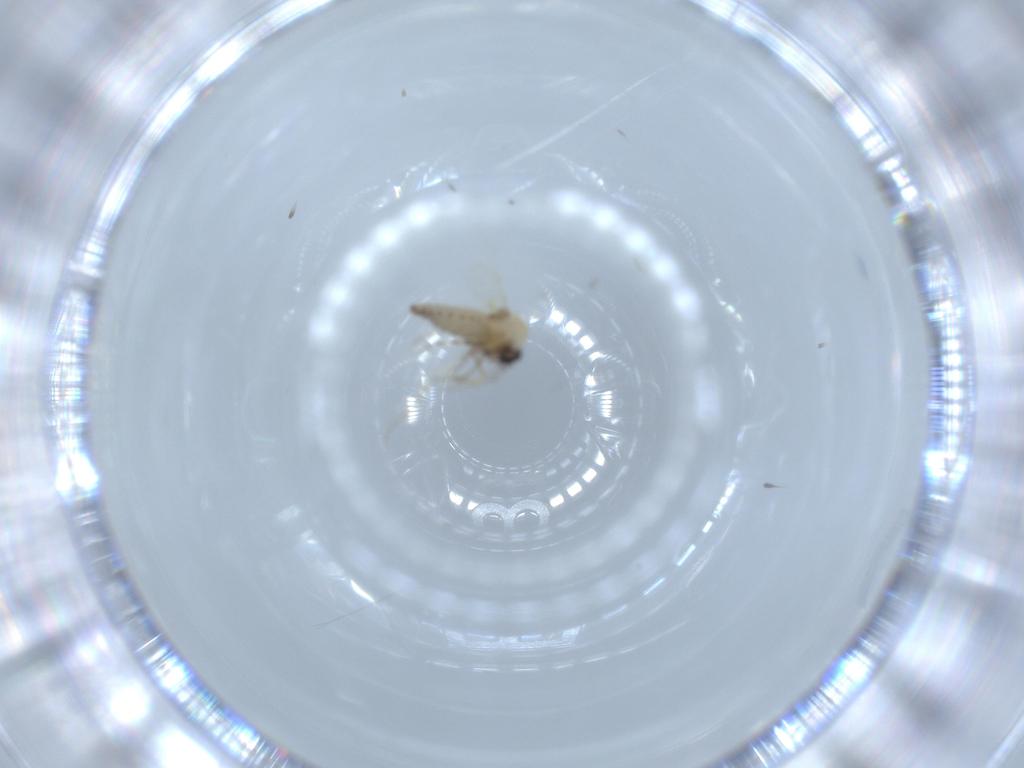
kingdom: Animalia
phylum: Arthropoda
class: Insecta
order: Diptera
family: Ceratopogonidae
